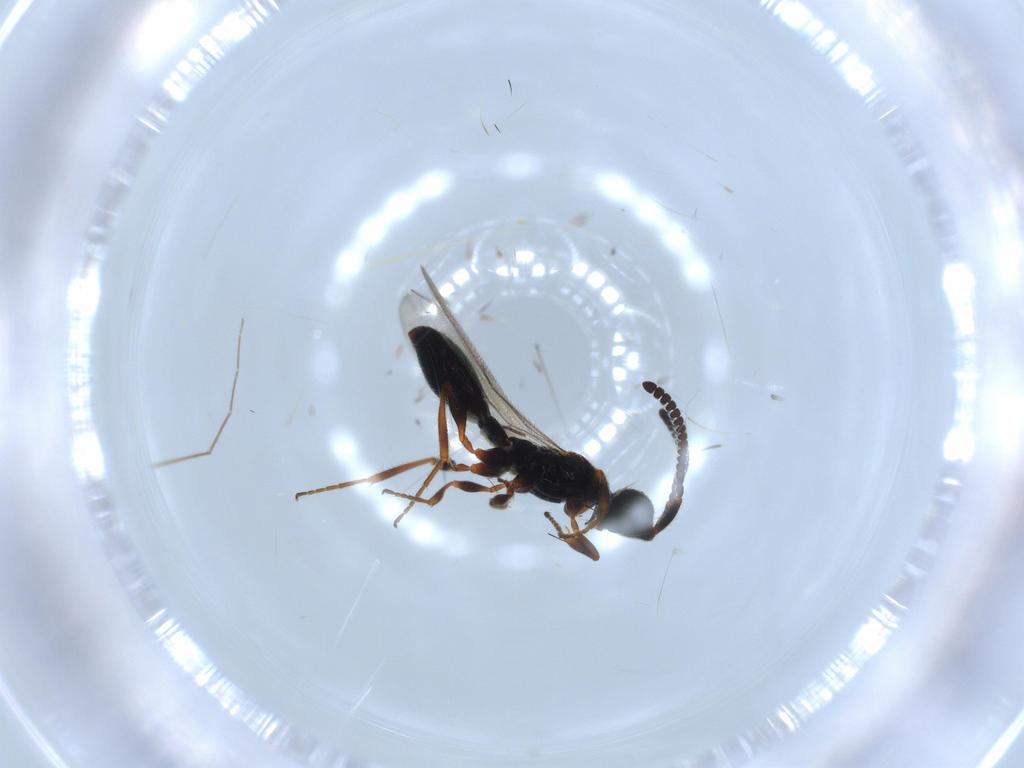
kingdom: Animalia
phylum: Arthropoda
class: Insecta
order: Hymenoptera
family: Diapriidae
